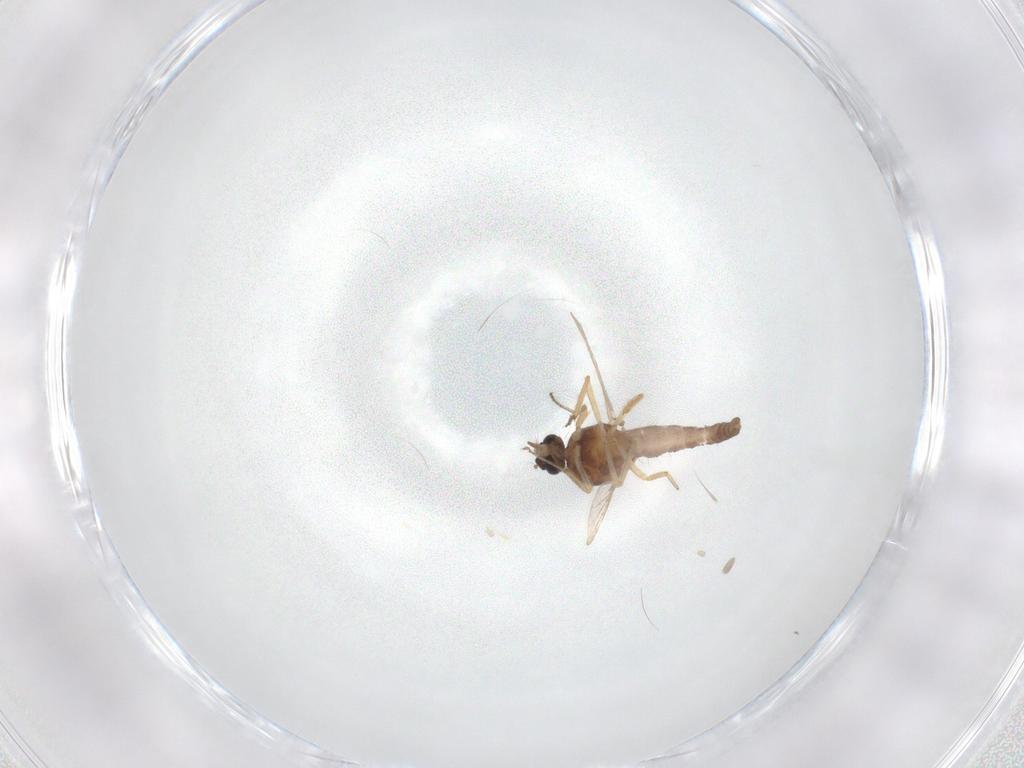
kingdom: Animalia
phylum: Arthropoda
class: Insecta
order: Diptera
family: Ceratopogonidae
